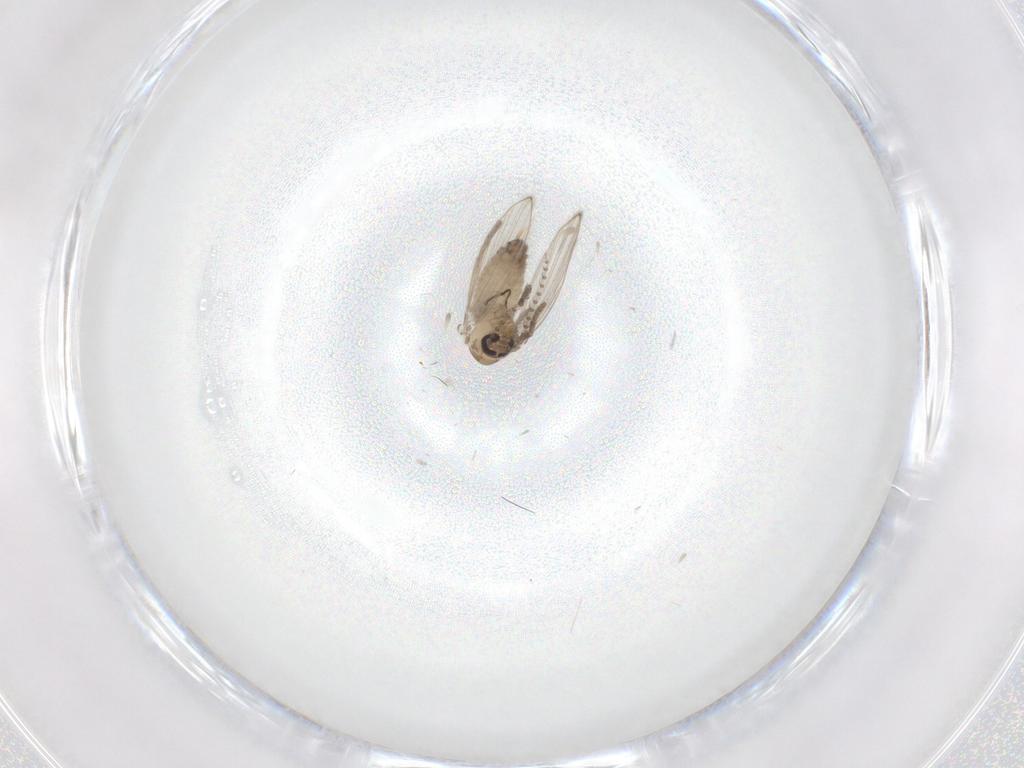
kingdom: Animalia
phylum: Arthropoda
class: Insecta
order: Diptera
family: Psychodidae
